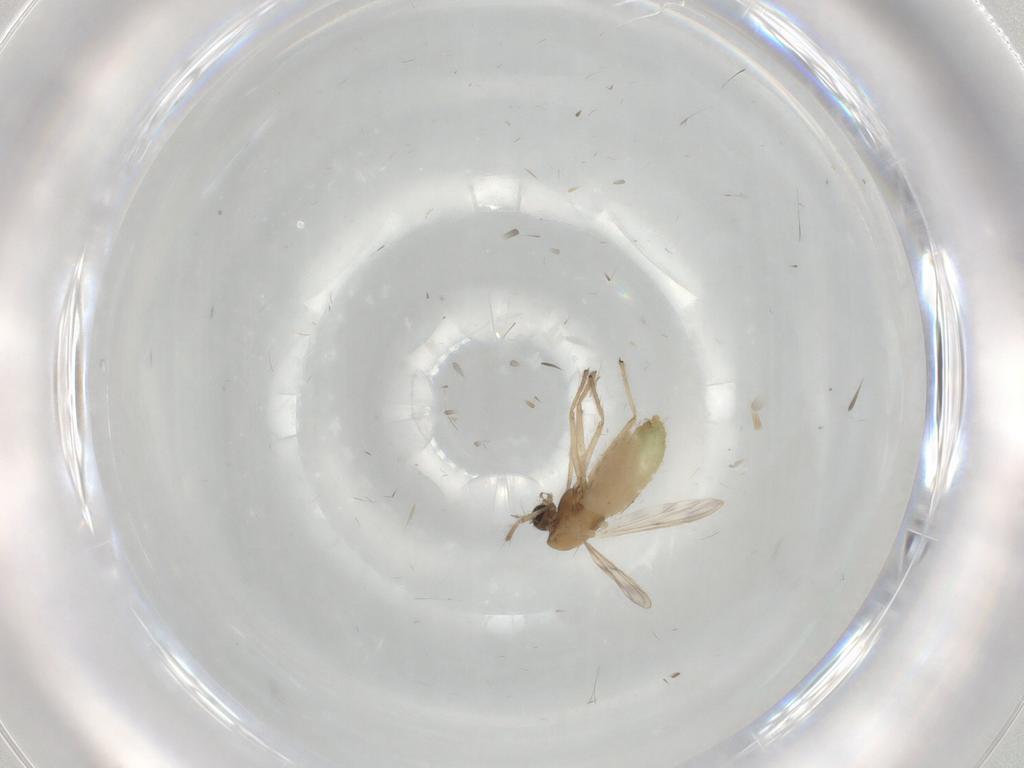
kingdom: Animalia
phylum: Arthropoda
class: Insecta
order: Diptera
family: Chironomidae
